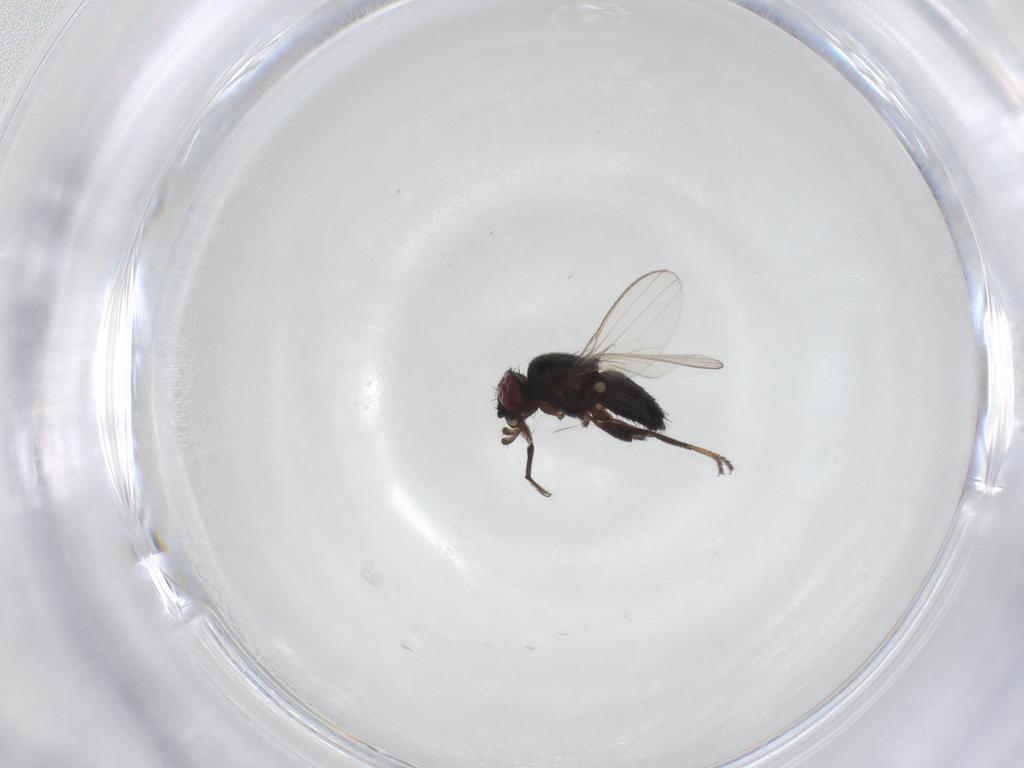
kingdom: Animalia
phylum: Arthropoda
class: Insecta
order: Diptera
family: Milichiidae
